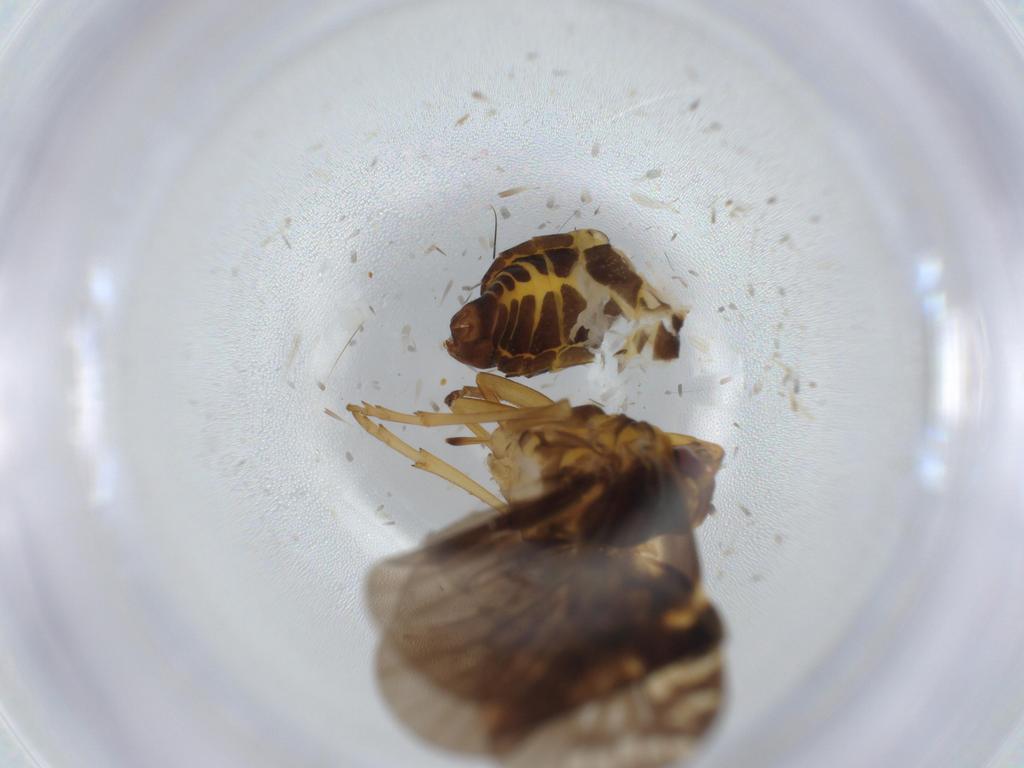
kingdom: Animalia
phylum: Arthropoda
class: Insecta
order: Hemiptera
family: Cixiidae
